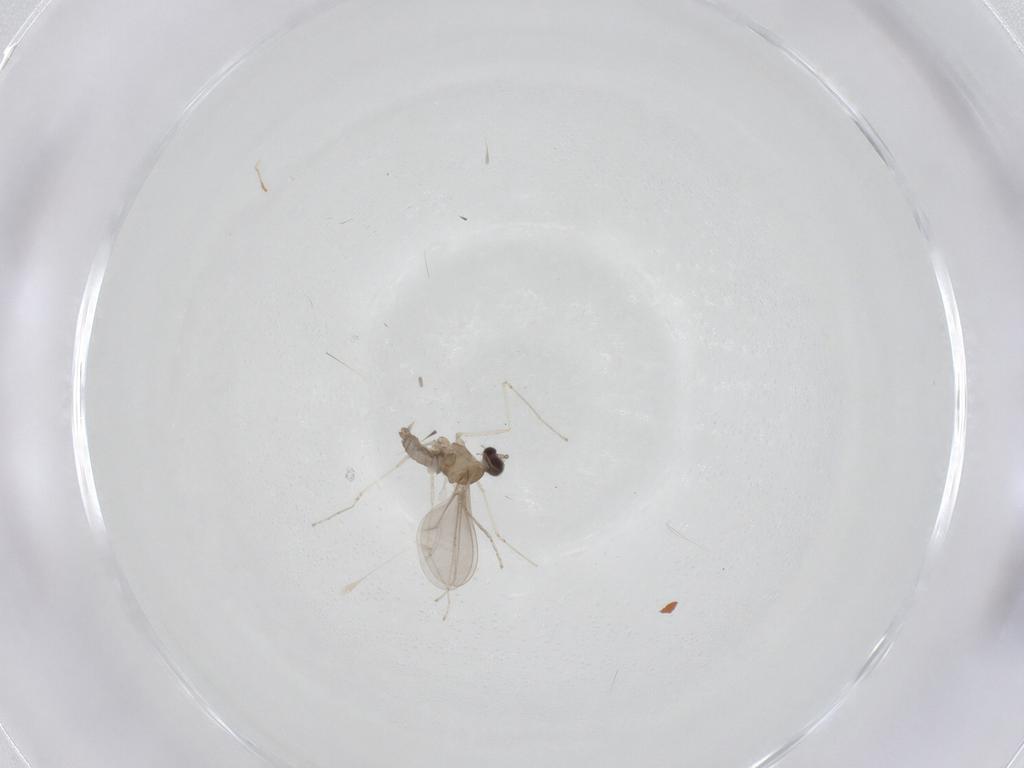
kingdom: Animalia
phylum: Arthropoda
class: Insecta
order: Diptera
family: Cecidomyiidae
